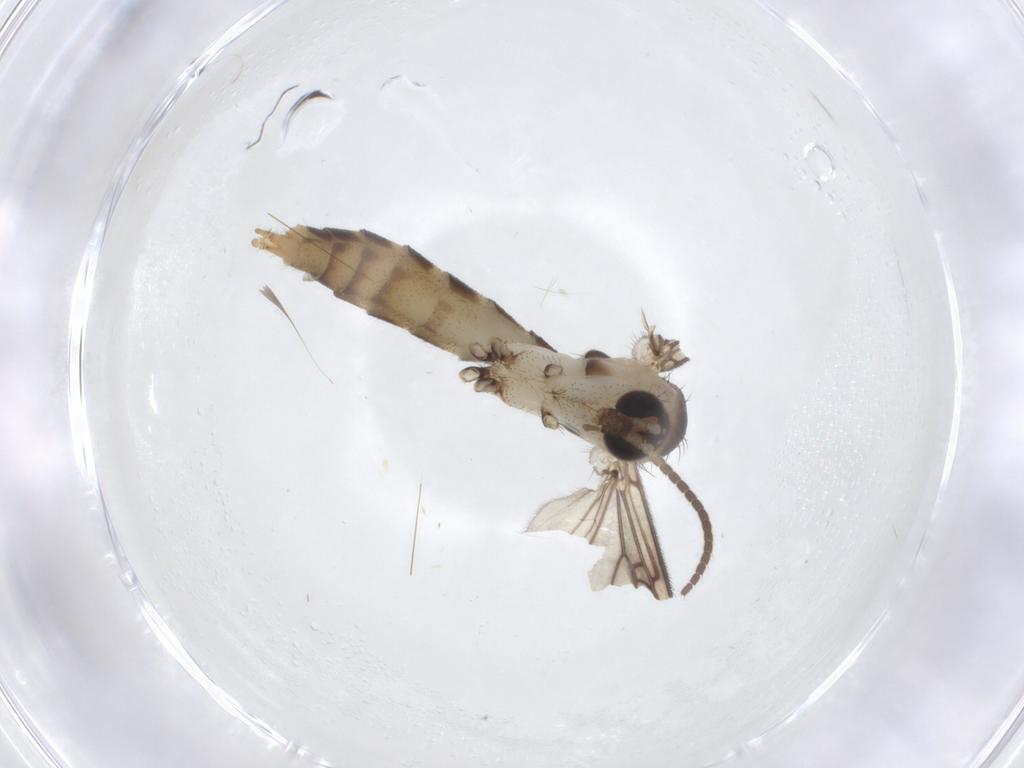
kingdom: Animalia
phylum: Arthropoda
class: Insecta
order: Diptera
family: Mycetophilidae
